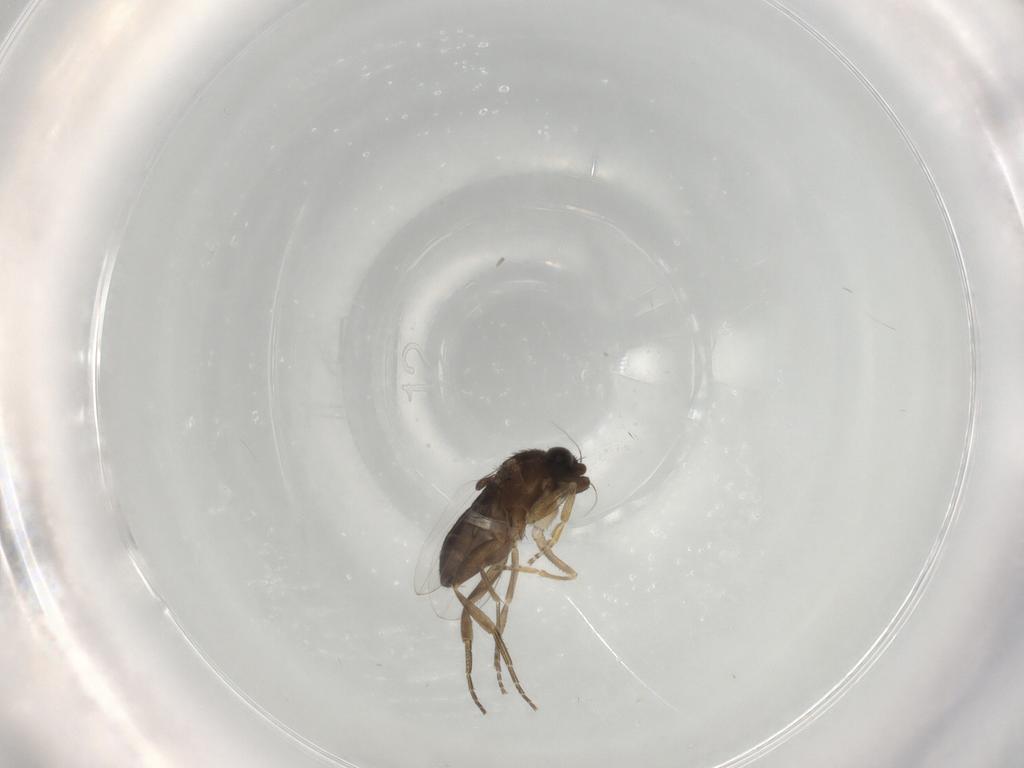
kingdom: Animalia
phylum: Arthropoda
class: Insecta
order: Diptera
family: Phoridae
